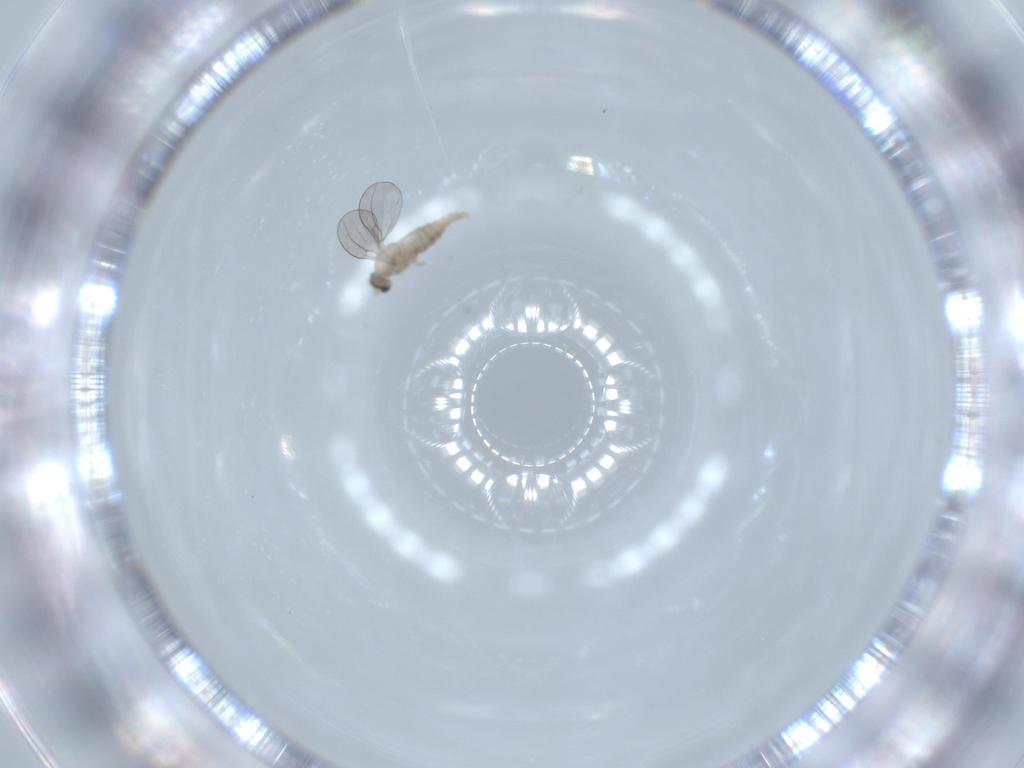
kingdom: Animalia
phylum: Arthropoda
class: Insecta
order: Diptera
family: Cecidomyiidae
